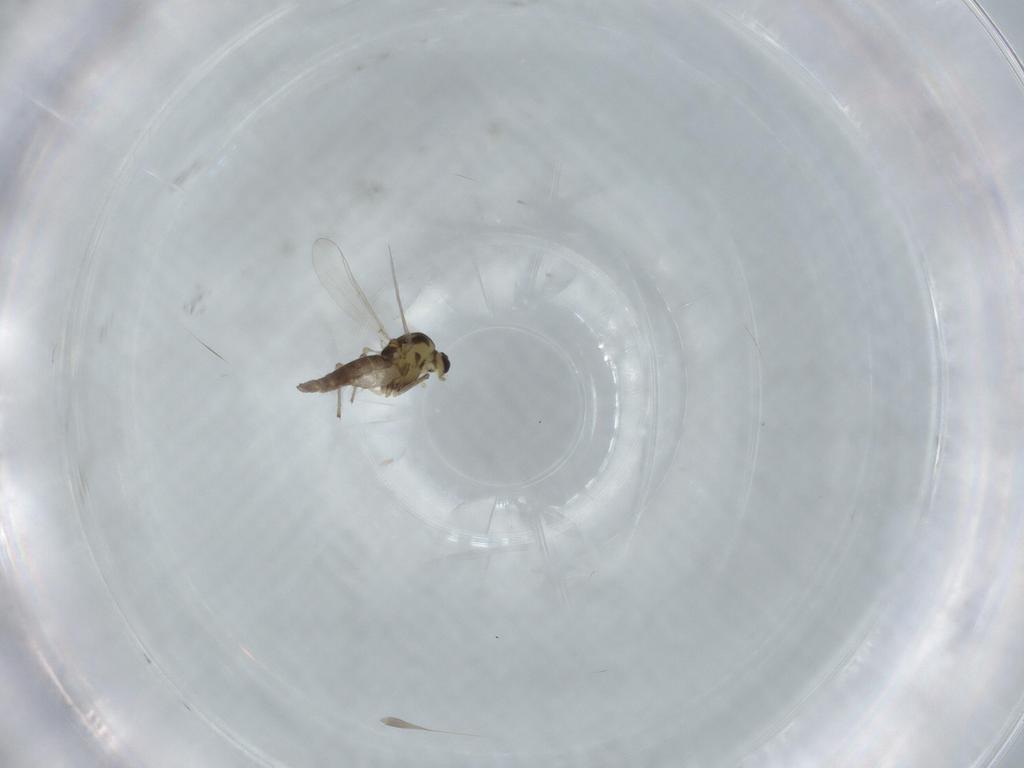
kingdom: Animalia
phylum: Arthropoda
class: Insecta
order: Diptera
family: Chironomidae
